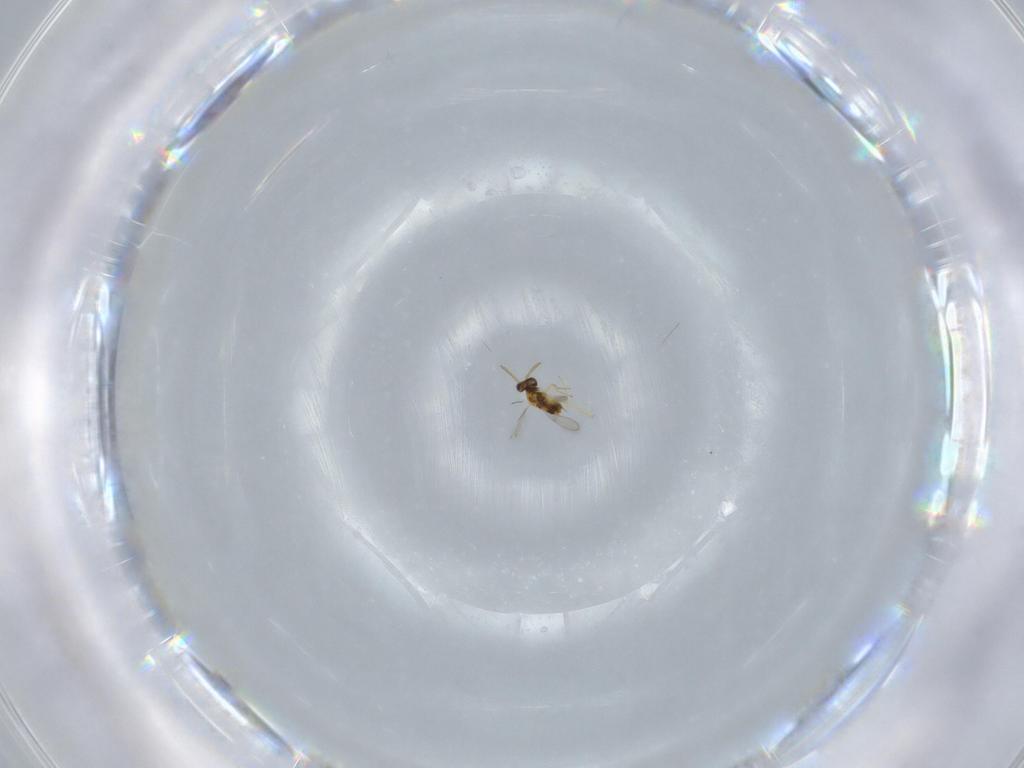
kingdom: Animalia
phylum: Arthropoda
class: Insecta
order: Hymenoptera
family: Aphelinidae
